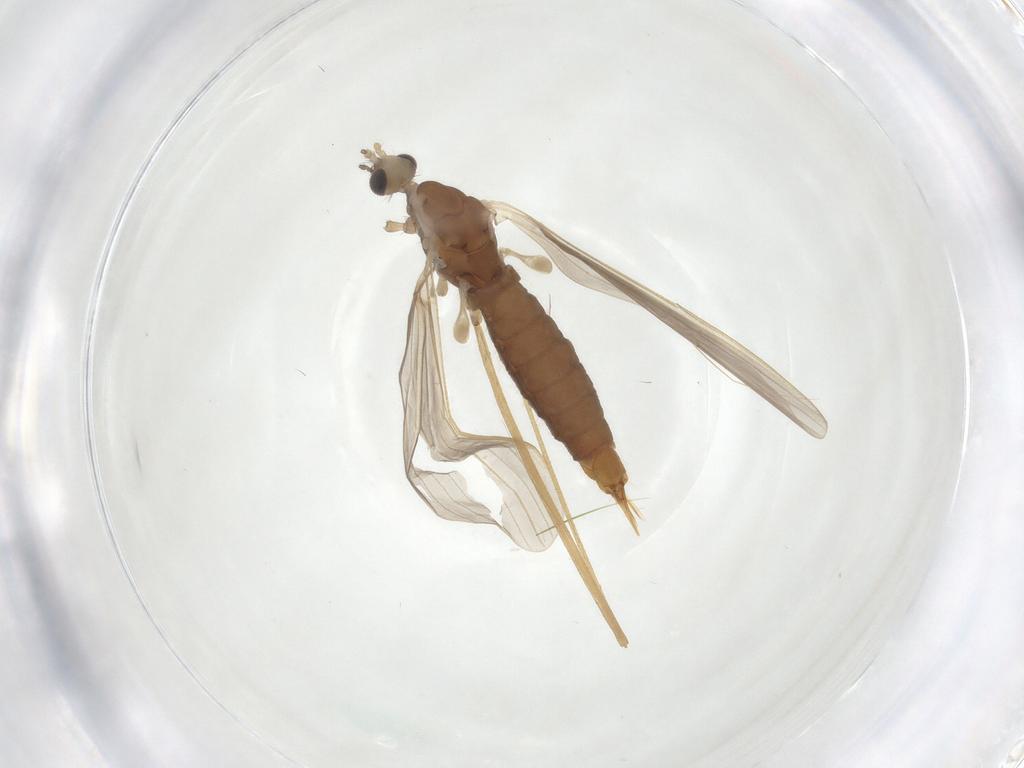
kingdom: Animalia
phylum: Arthropoda
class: Insecta
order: Diptera
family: Limoniidae
